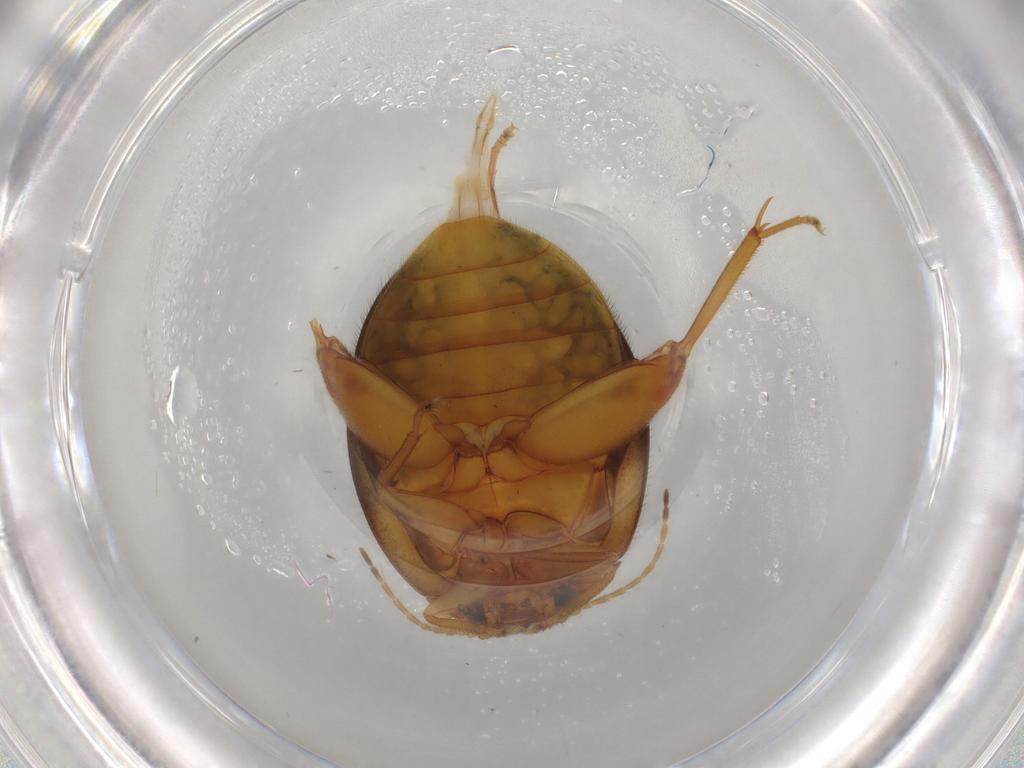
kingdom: Animalia
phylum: Arthropoda
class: Insecta
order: Coleoptera
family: Scirtidae
